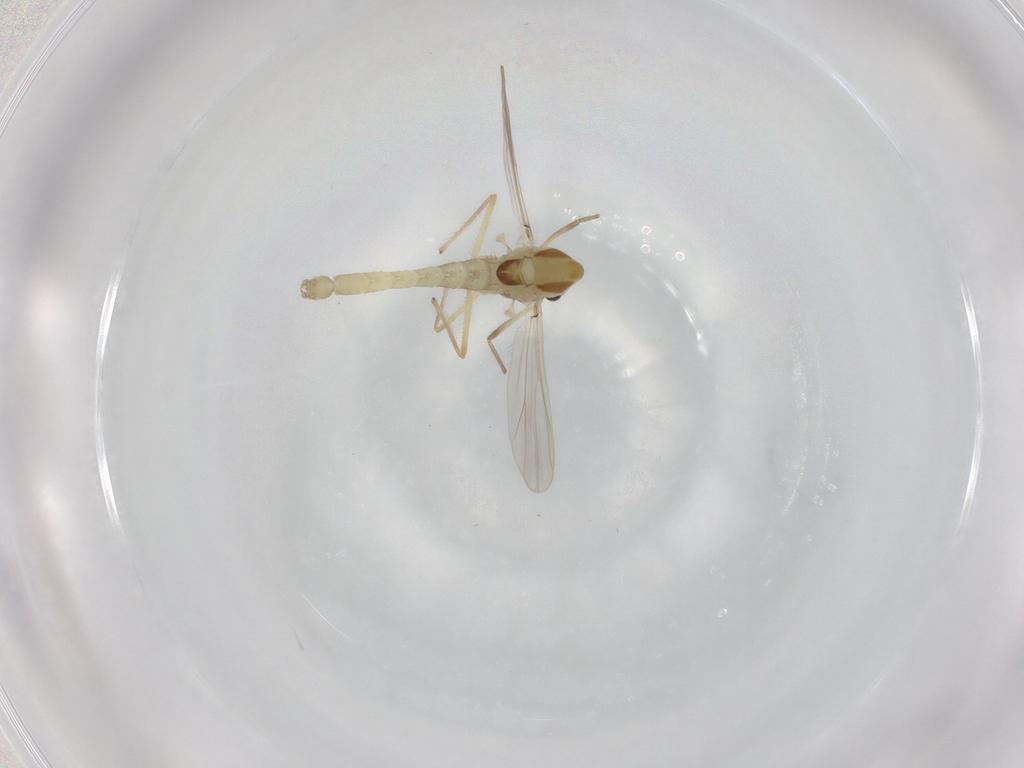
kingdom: Animalia
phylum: Arthropoda
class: Insecta
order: Diptera
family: Chironomidae
